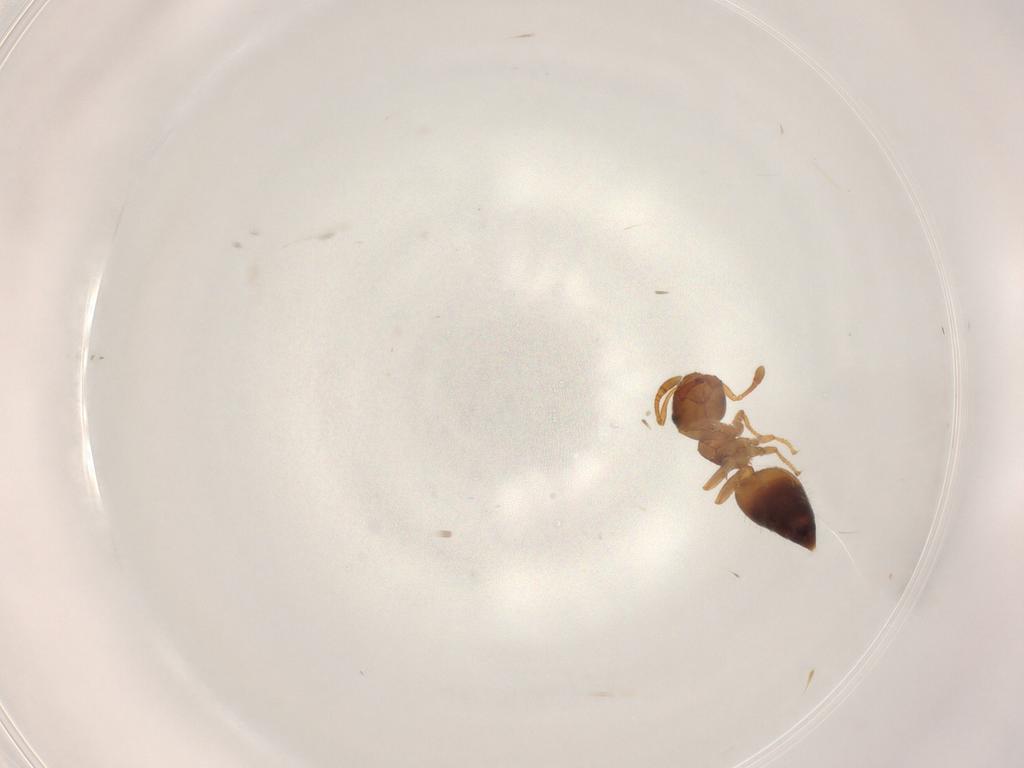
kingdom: Animalia
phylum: Arthropoda
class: Insecta
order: Hymenoptera
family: Formicidae
